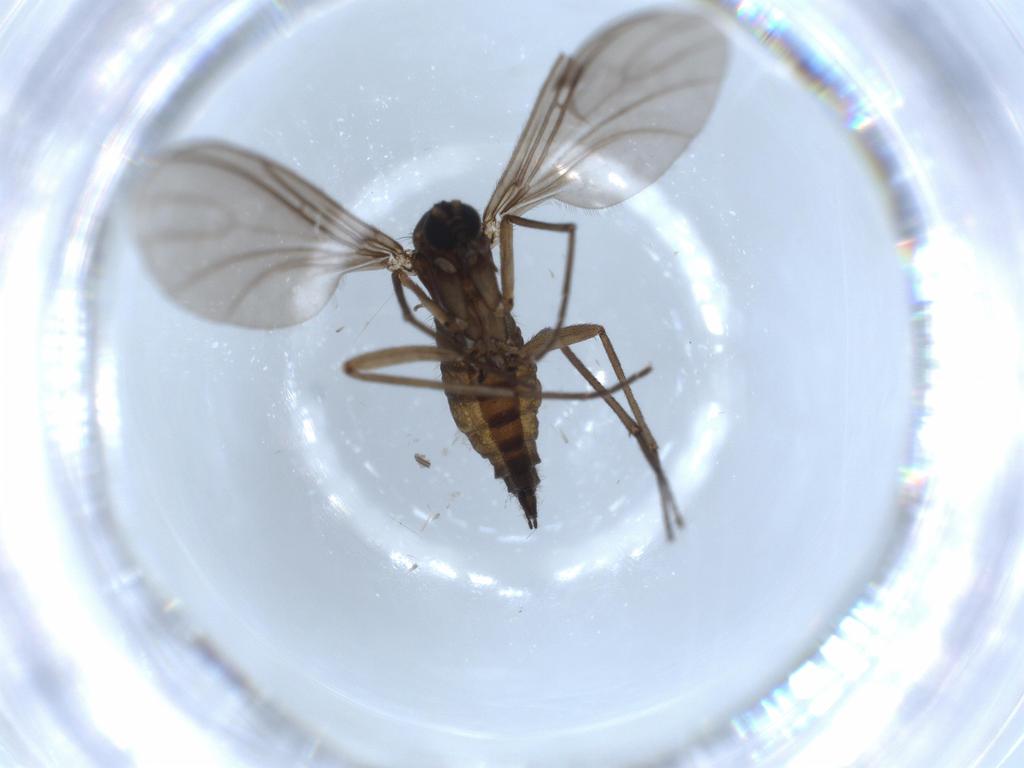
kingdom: Animalia
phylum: Arthropoda
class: Insecta
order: Diptera
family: Sciaridae
